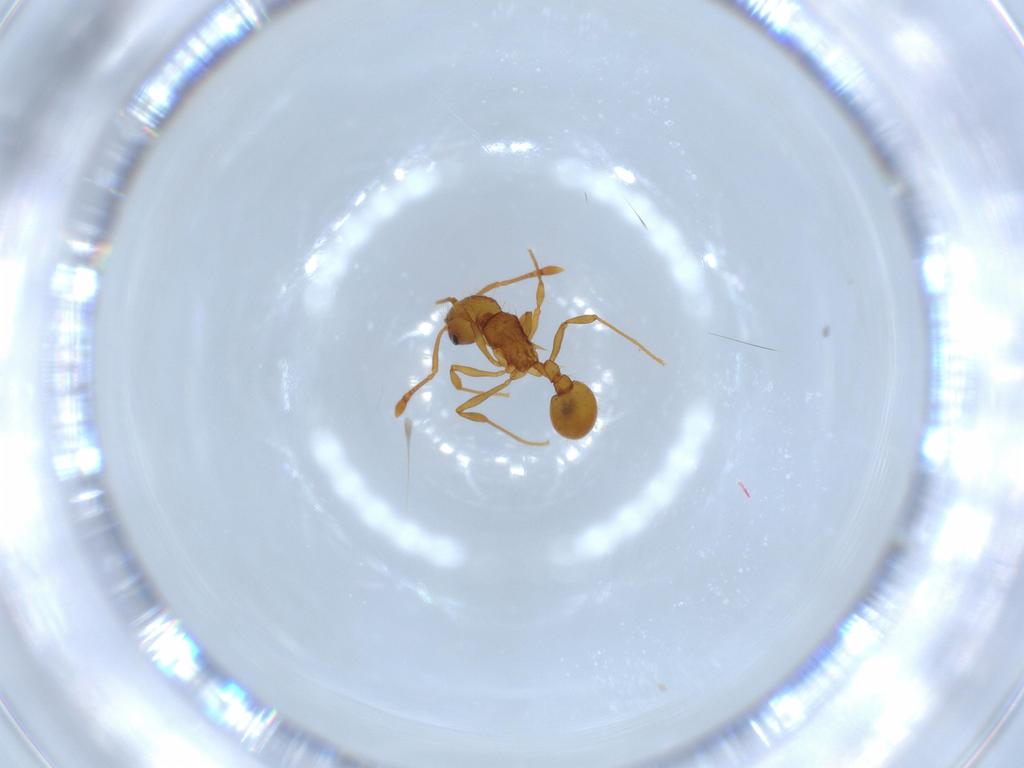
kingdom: Animalia
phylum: Arthropoda
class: Insecta
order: Hymenoptera
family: Formicidae
